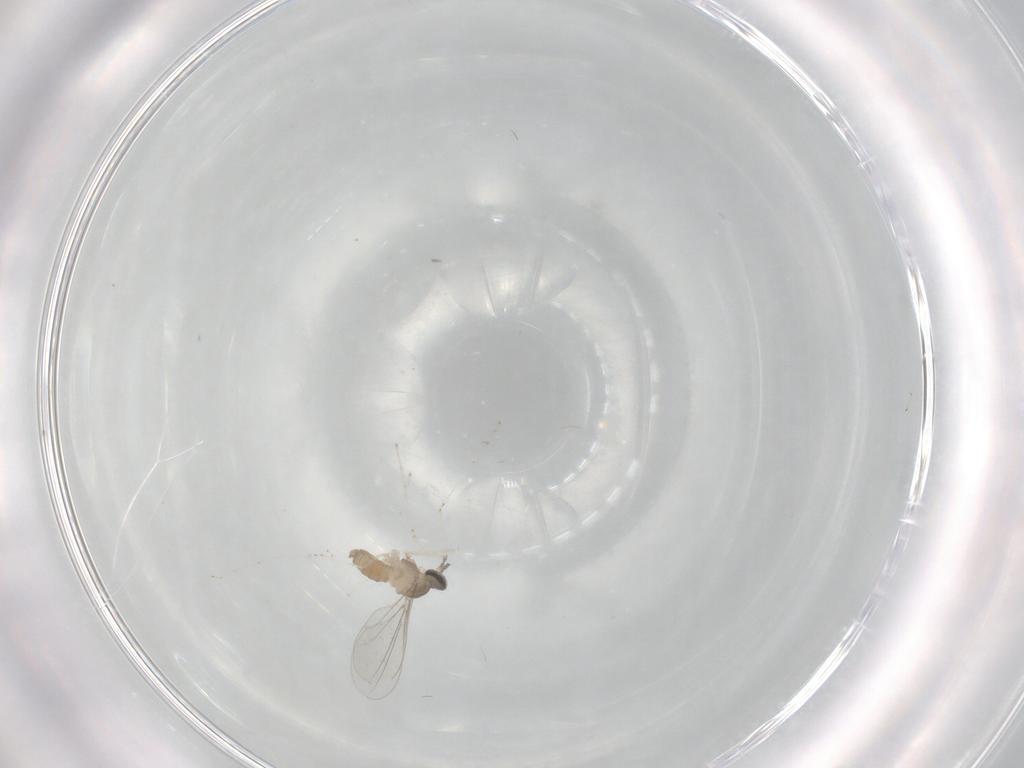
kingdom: Animalia
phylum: Arthropoda
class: Insecta
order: Diptera
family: Cecidomyiidae
